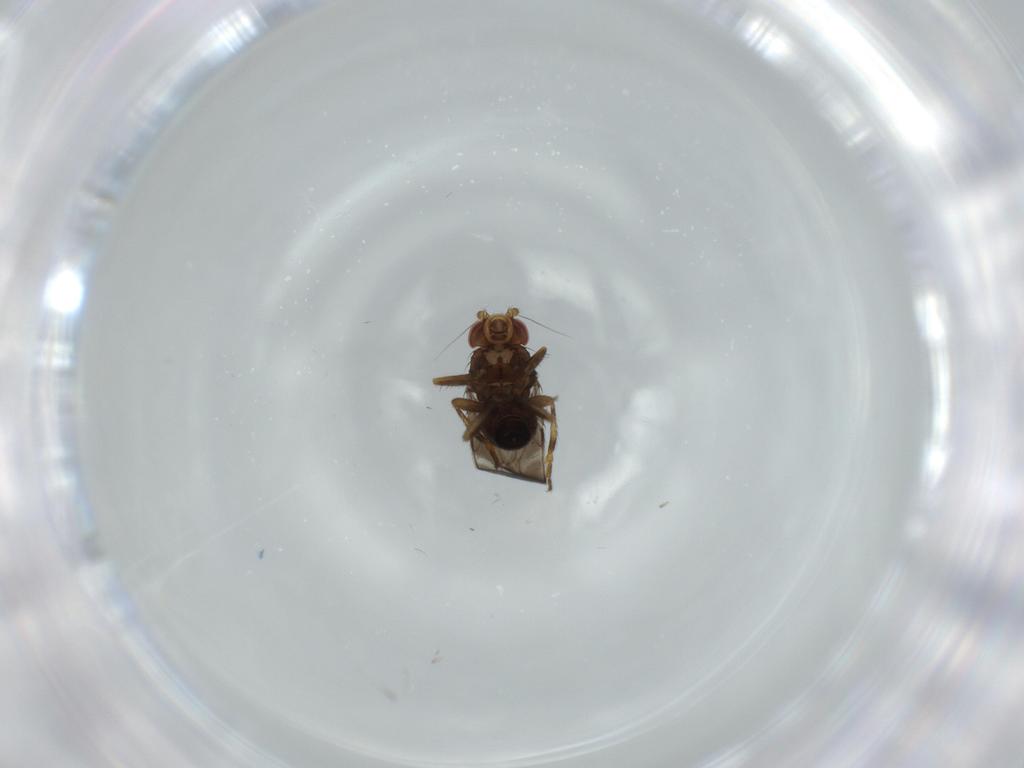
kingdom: Animalia
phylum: Arthropoda
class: Insecta
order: Diptera
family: Sphaeroceridae
